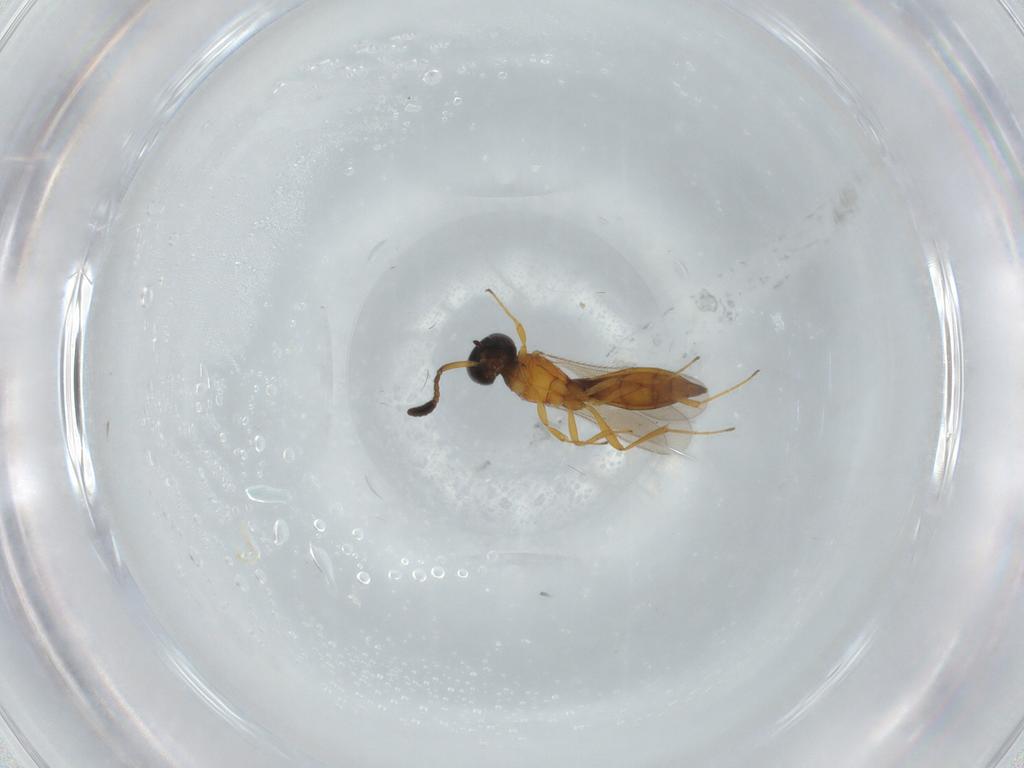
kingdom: Animalia
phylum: Arthropoda
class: Insecta
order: Hymenoptera
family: Scelionidae
